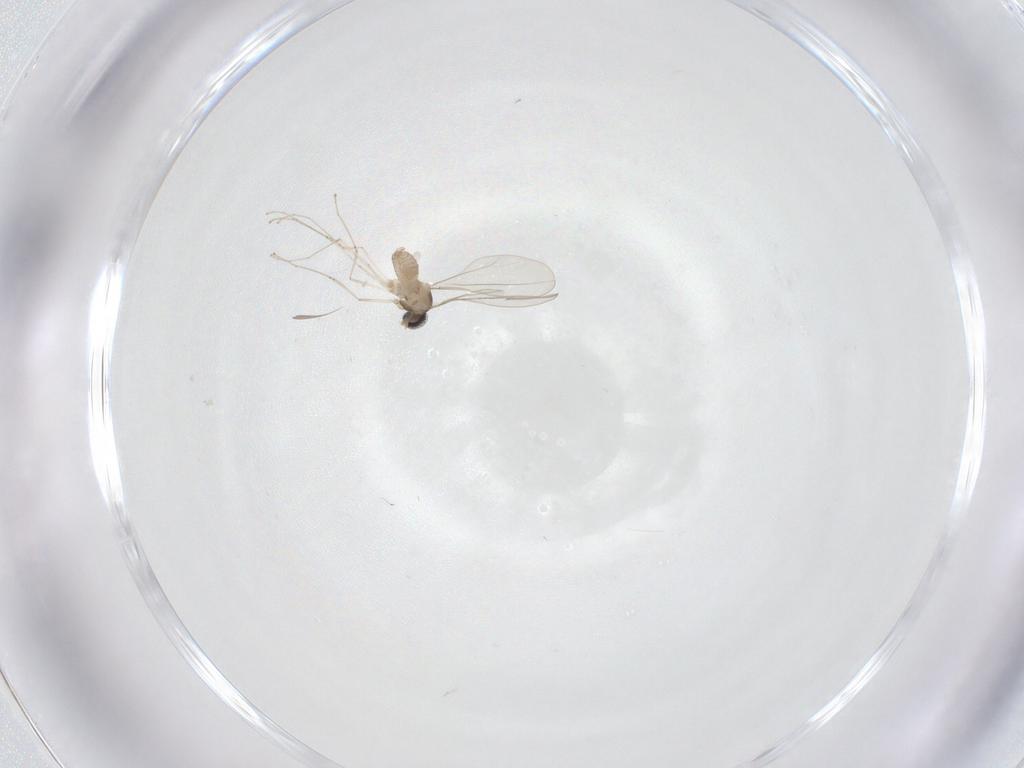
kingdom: Animalia
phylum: Arthropoda
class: Insecta
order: Diptera
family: Cecidomyiidae
